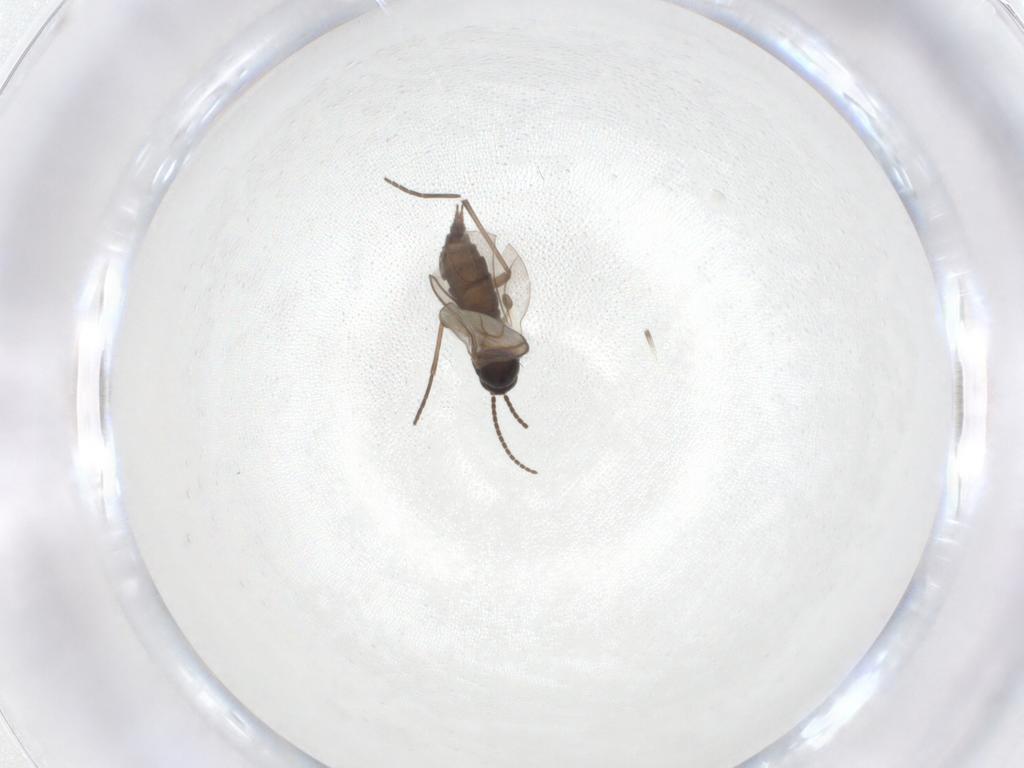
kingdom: Animalia
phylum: Arthropoda
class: Insecta
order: Diptera
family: Sciaridae
